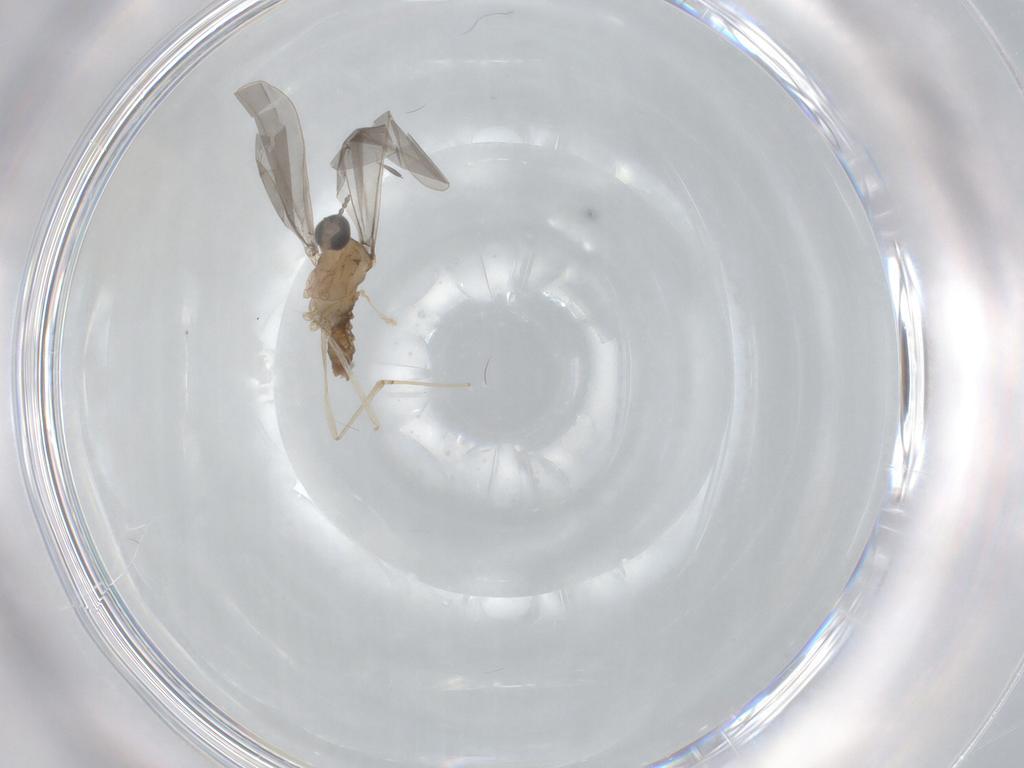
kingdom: Animalia
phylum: Arthropoda
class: Insecta
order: Diptera
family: Cecidomyiidae
